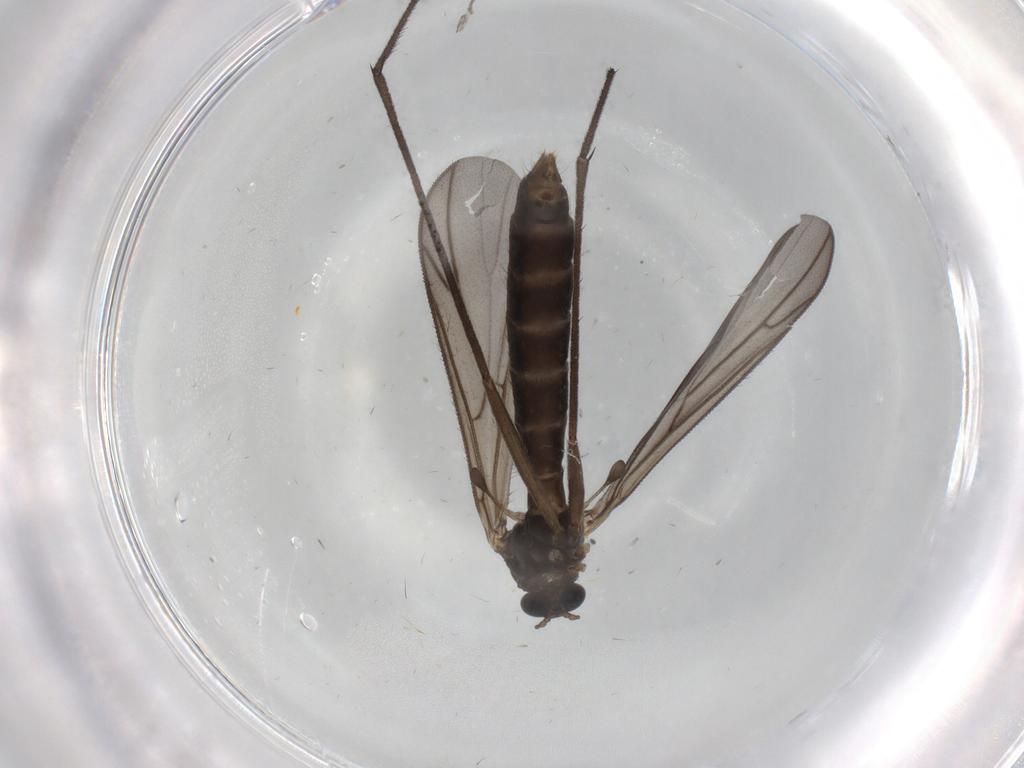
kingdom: Animalia
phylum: Arthropoda
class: Insecta
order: Diptera
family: Keroplatidae
